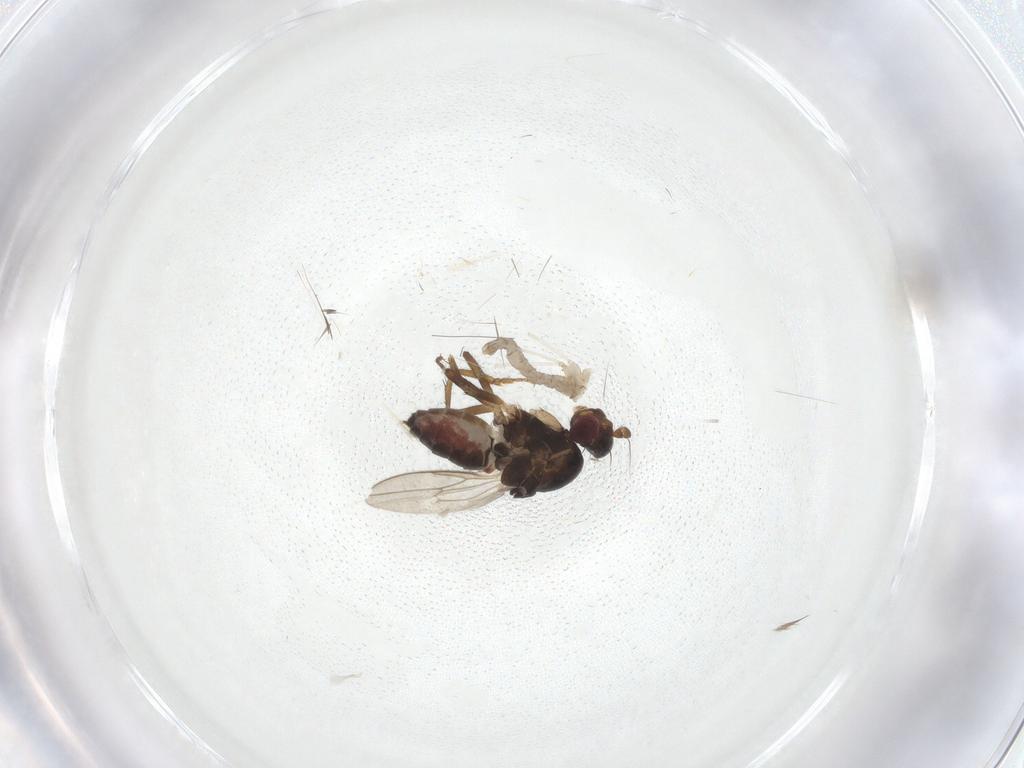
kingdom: Animalia
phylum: Arthropoda
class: Insecta
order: Diptera
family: Sphaeroceridae
